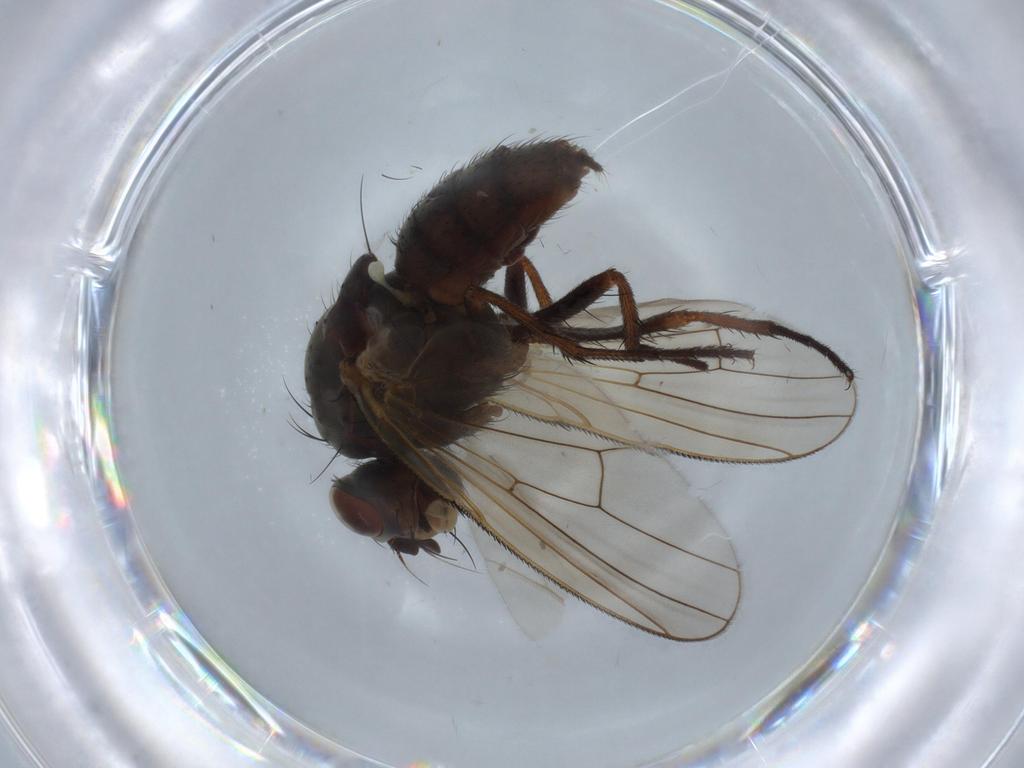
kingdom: Animalia
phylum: Arthropoda
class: Insecta
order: Diptera
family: Anthomyiidae
